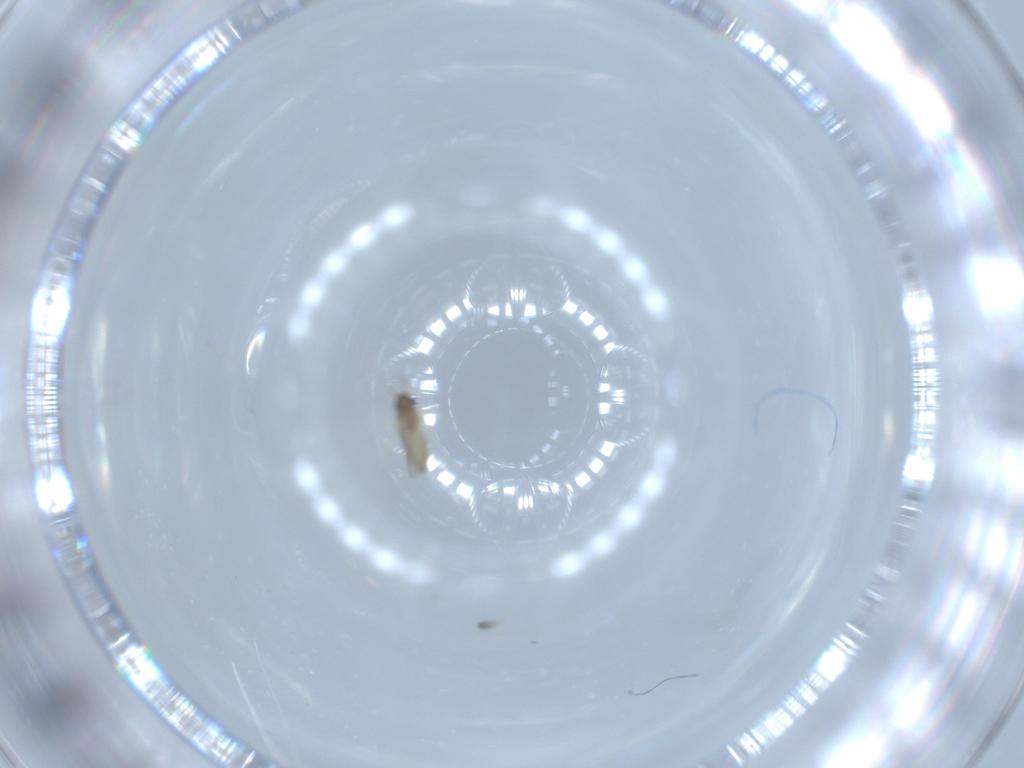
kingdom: Animalia
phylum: Arthropoda
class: Insecta
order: Diptera
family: Cecidomyiidae
